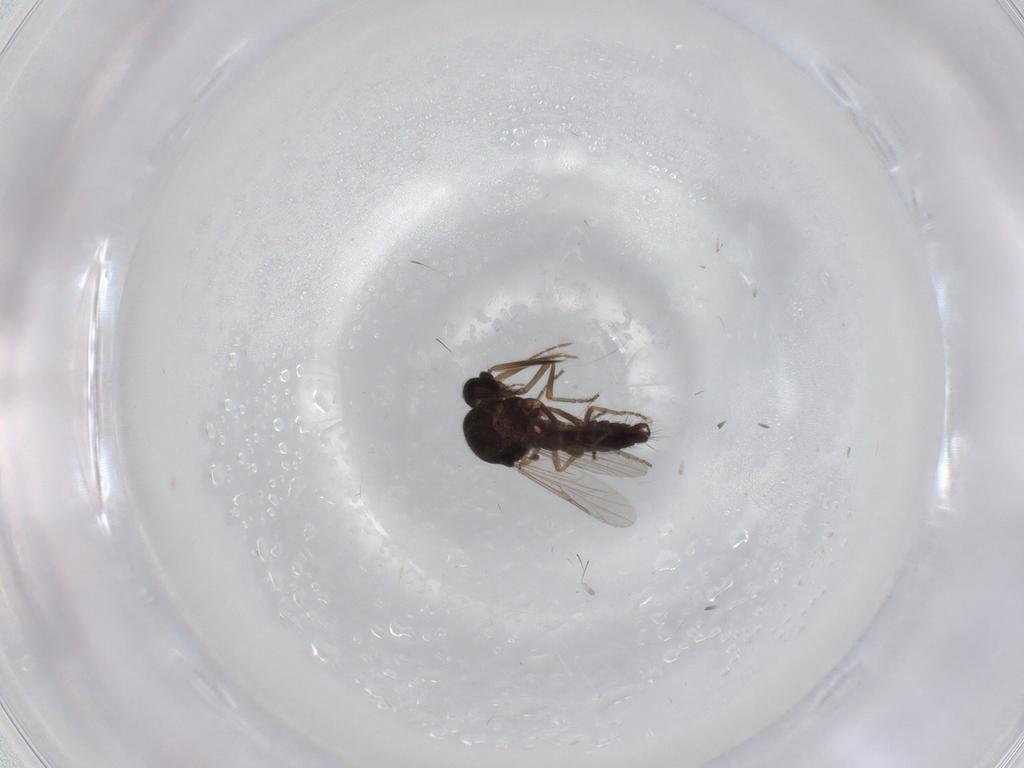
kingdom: Animalia
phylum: Arthropoda
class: Insecta
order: Diptera
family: Ceratopogonidae
